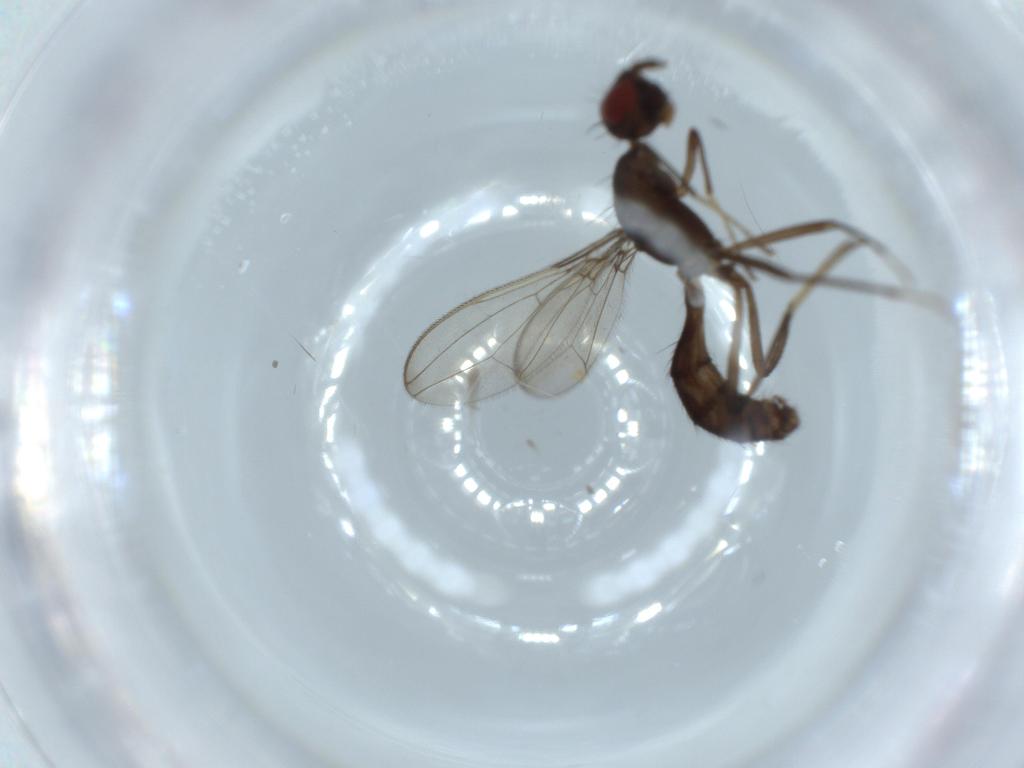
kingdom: Animalia
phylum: Arthropoda
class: Insecta
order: Diptera
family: Richardiidae
